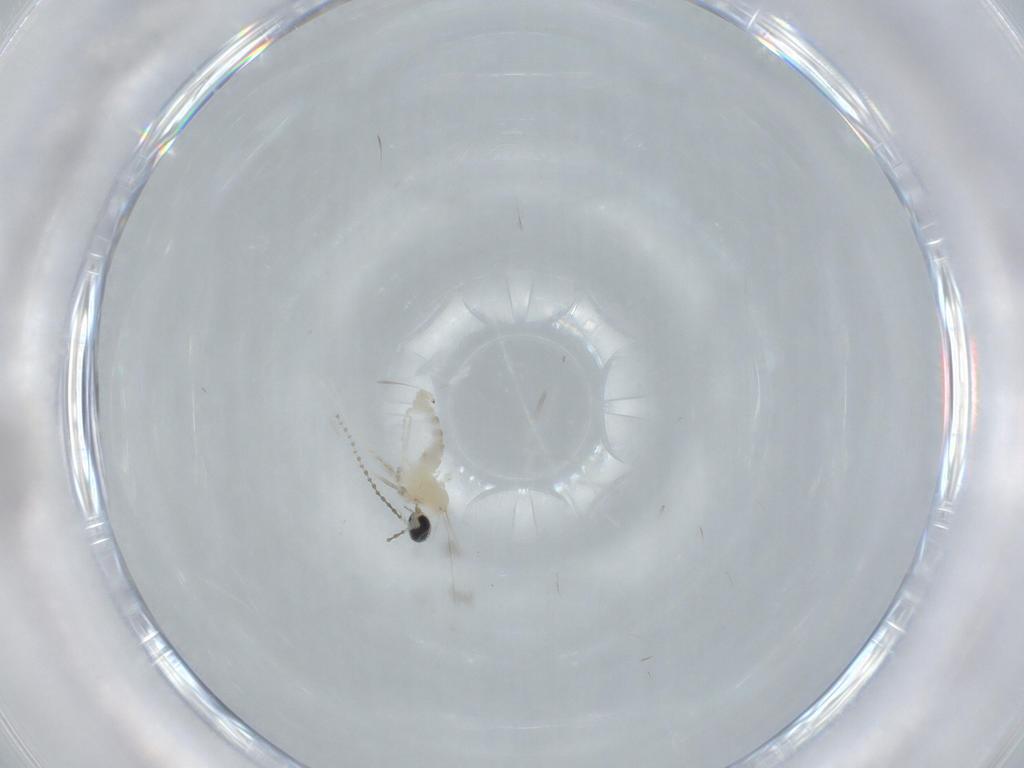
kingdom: Animalia
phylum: Arthropoda
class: Insecta
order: Diptera
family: Cecidomyiidae
